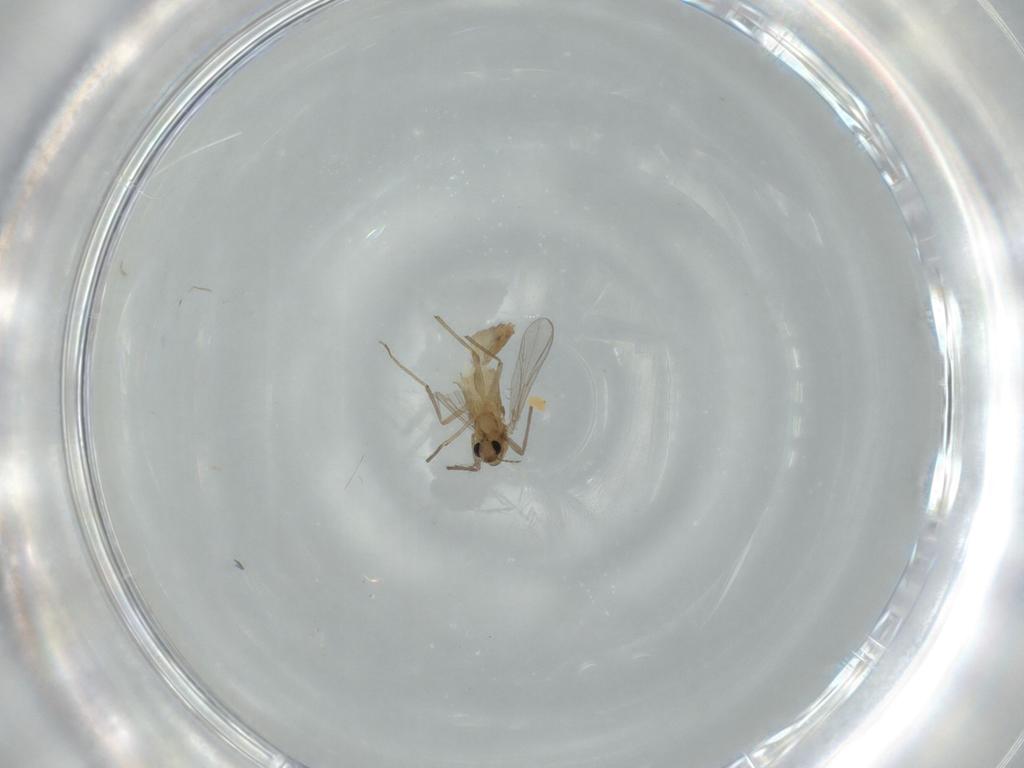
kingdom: Animalia
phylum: Arthropoda
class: Insecta
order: Diptera
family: Chironomidae
